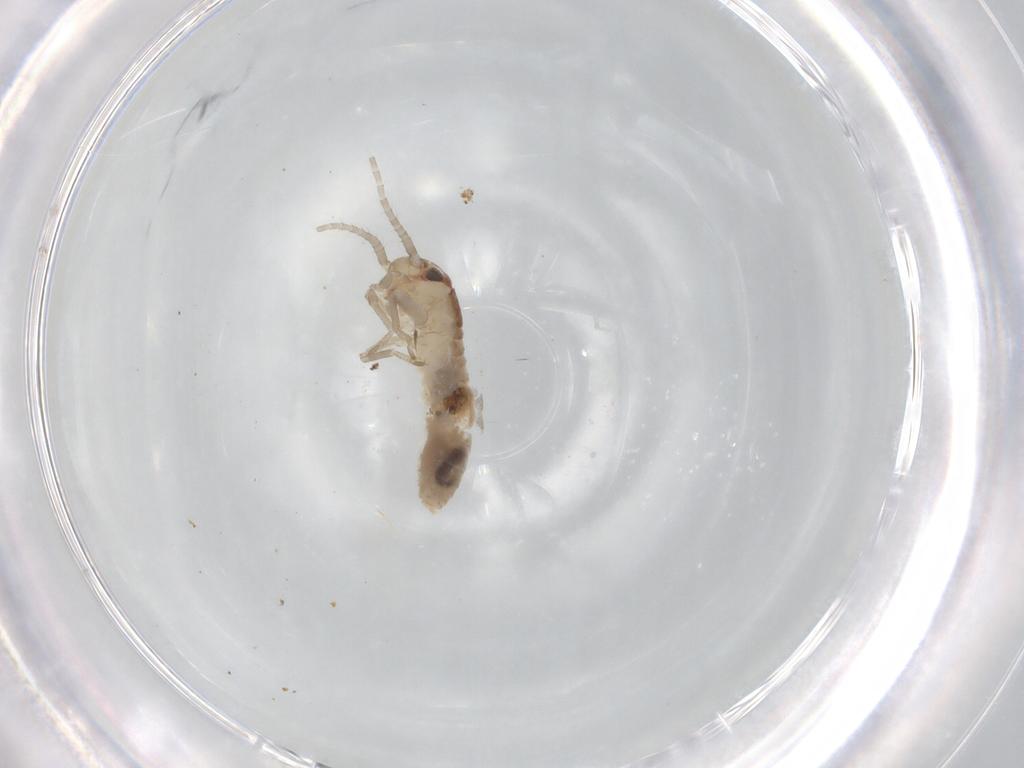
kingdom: Animalia
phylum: Arthropoda
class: Insecta
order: Orthoptera
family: Gryllidae
